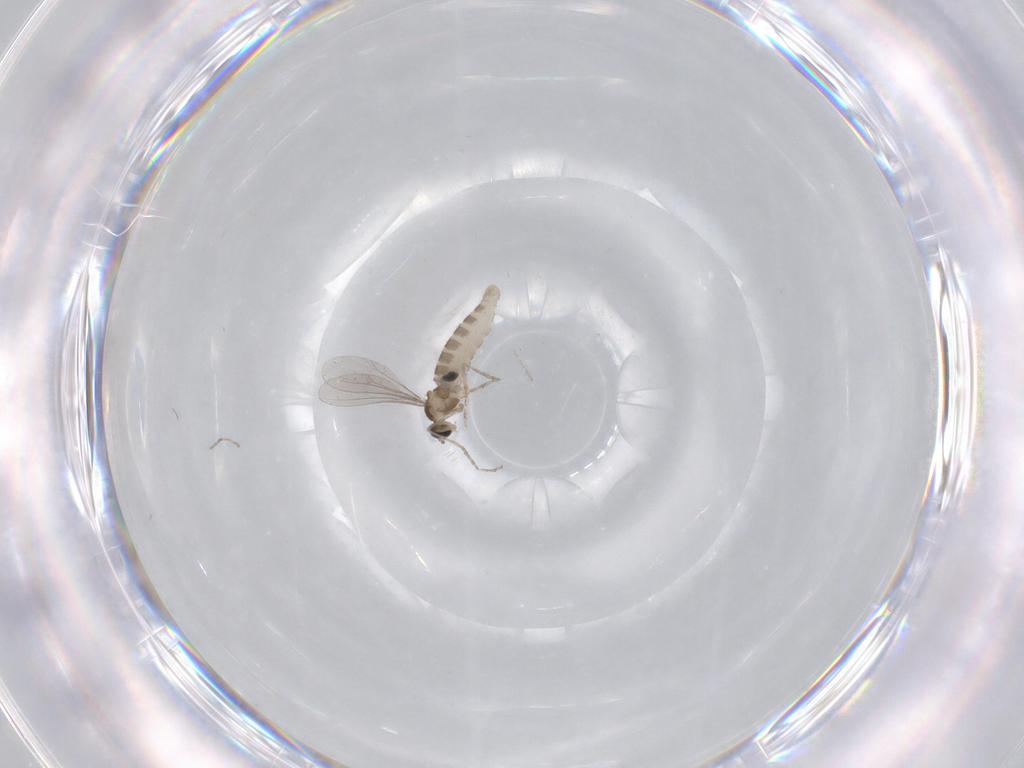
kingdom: Animalia
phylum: Arthropoda
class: Insecta
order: Diptera
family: Chironomidae
